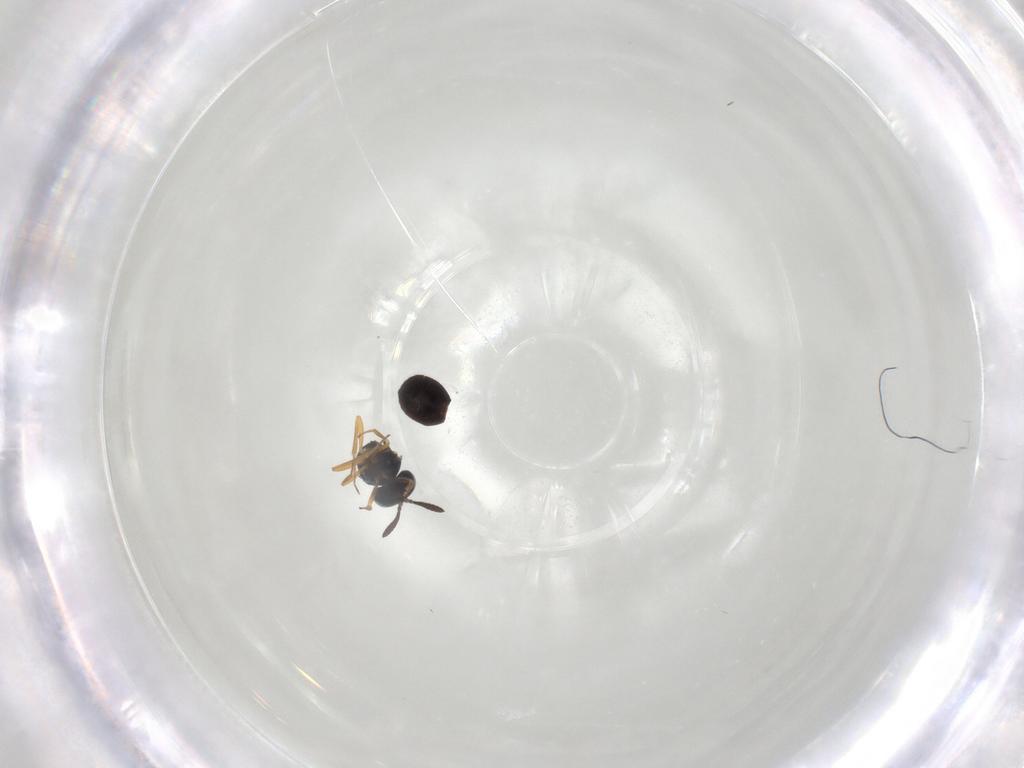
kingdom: Animalia
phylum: Arthropoda
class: Insecta
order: Hymenoptera
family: Scelionidae
